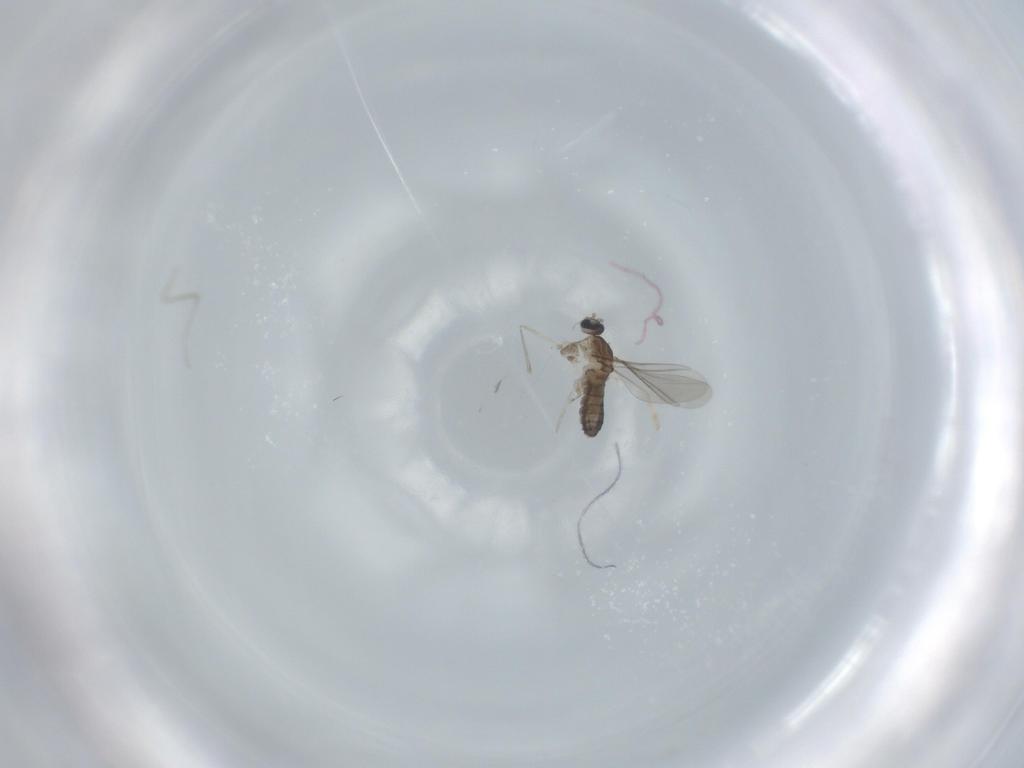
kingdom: Animalia
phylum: Arthropoda
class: Insecta
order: Diptera
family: Cecidomyiidae
